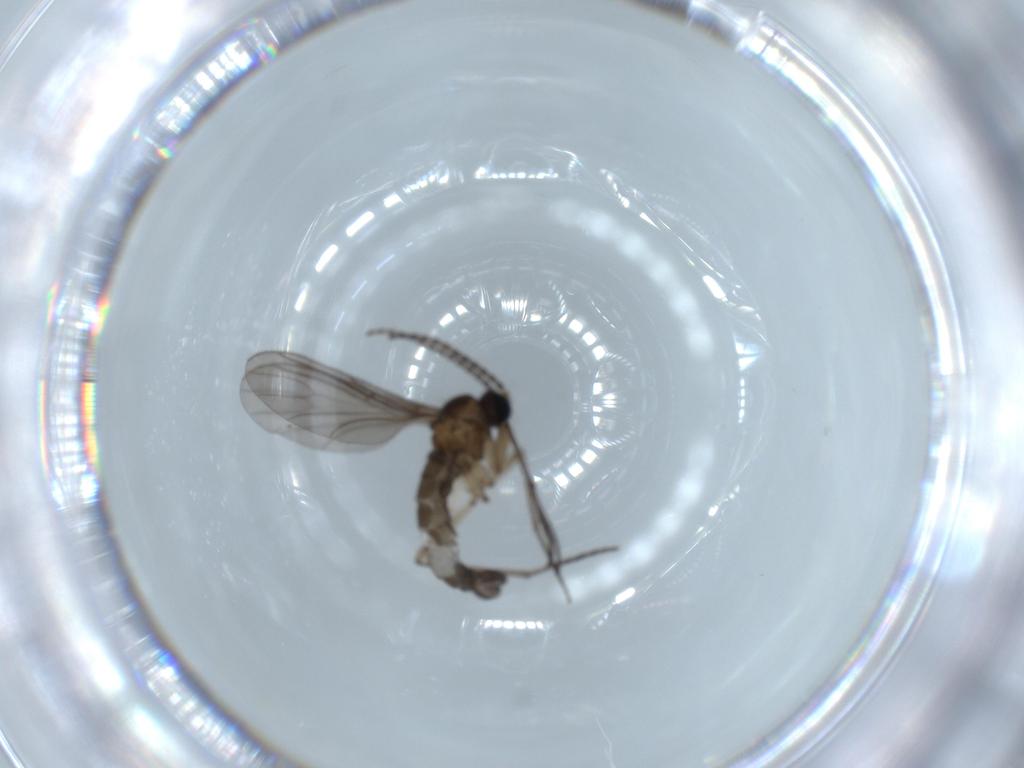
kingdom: Animalia
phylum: Arthropoda
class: Insecta
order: Diptera
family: Sciaridae
